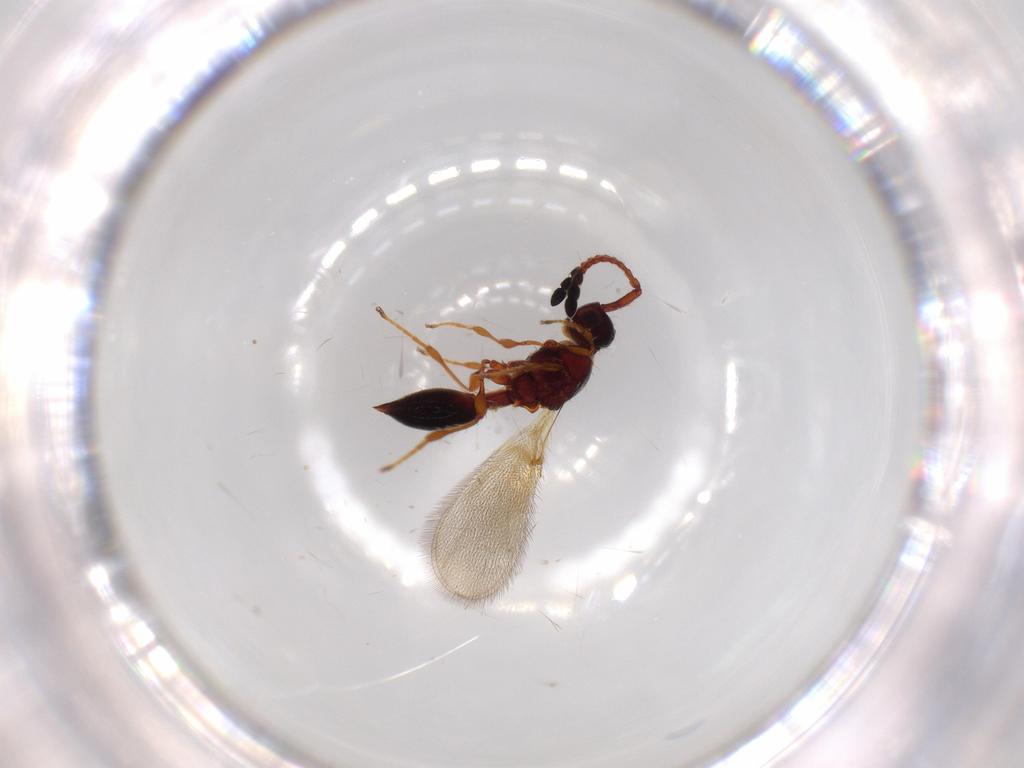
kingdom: Animalia
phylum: Arthropoda
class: Insecta
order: Hymenoptera
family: Diapriidae
